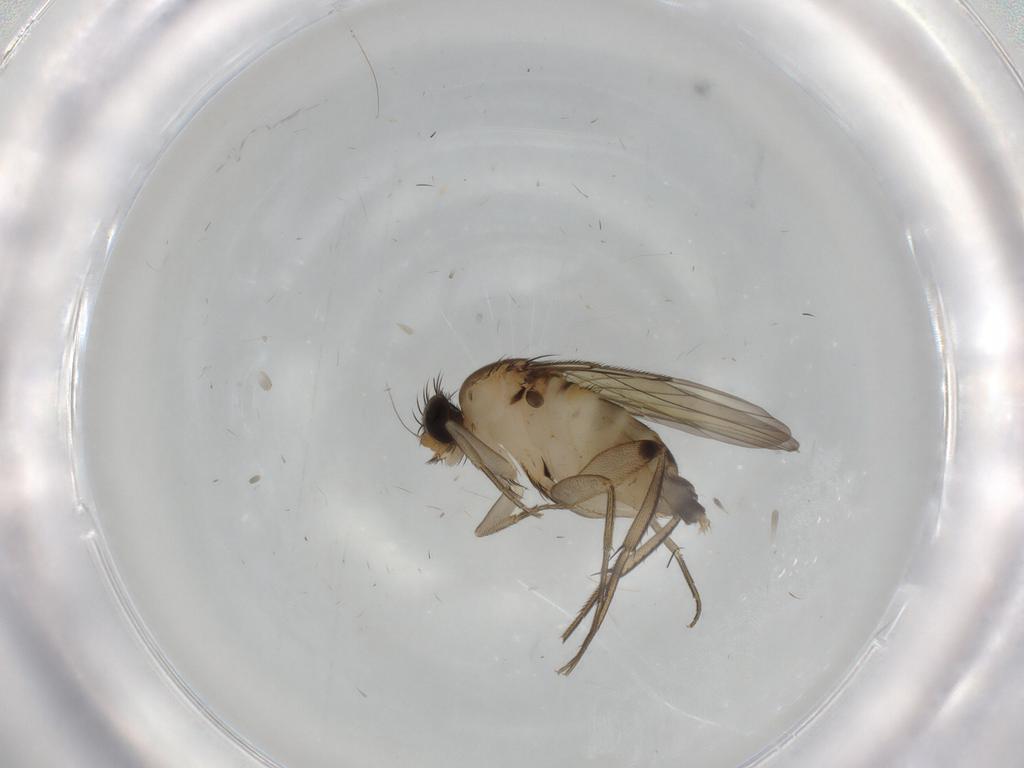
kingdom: Animalia
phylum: Arthropoda
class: Insecta
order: Diptera
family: Phoridae
